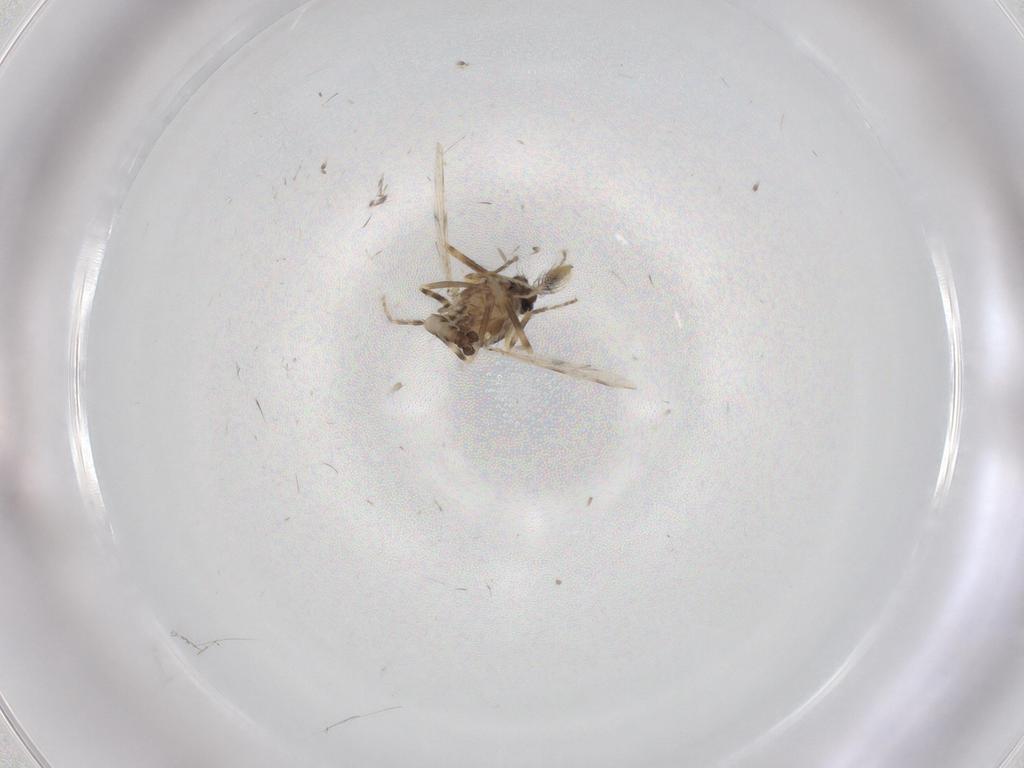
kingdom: Animalia
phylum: Arthropoda
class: Insecta
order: Diptera
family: Ceratopogonidae
